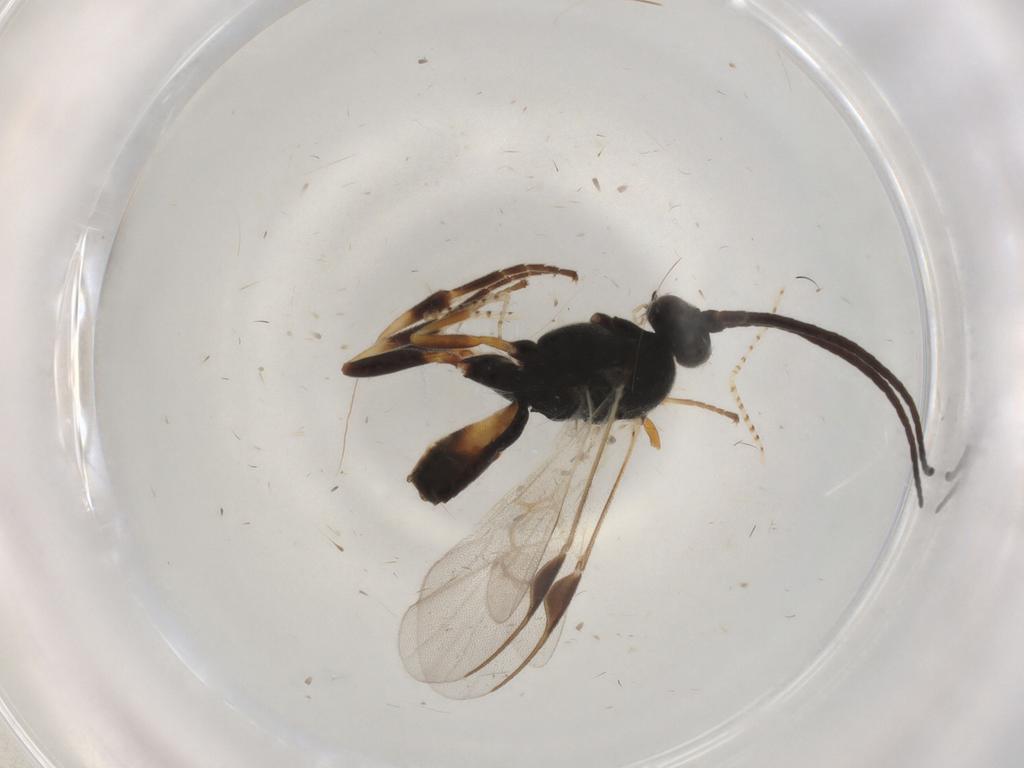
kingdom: Animalia
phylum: Arthropoda
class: Insecta
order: Hymenoptera
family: Braconidae
